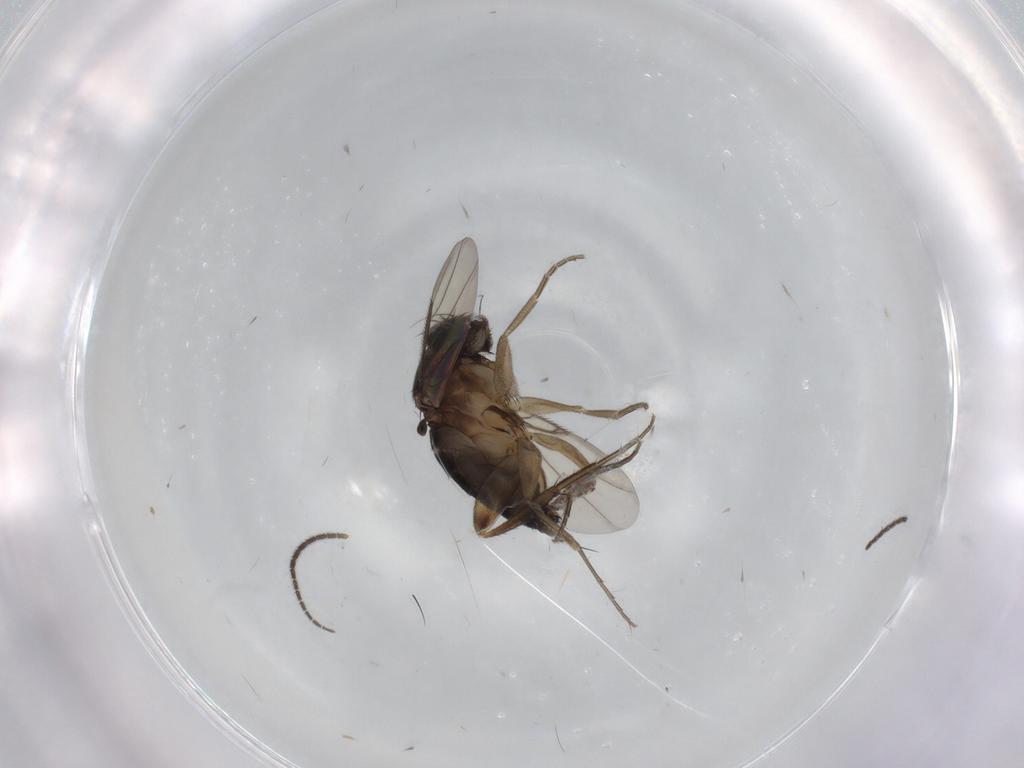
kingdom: Animalia
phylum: Arthropoda
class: Insecta
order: Diptera
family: Sciaridae
